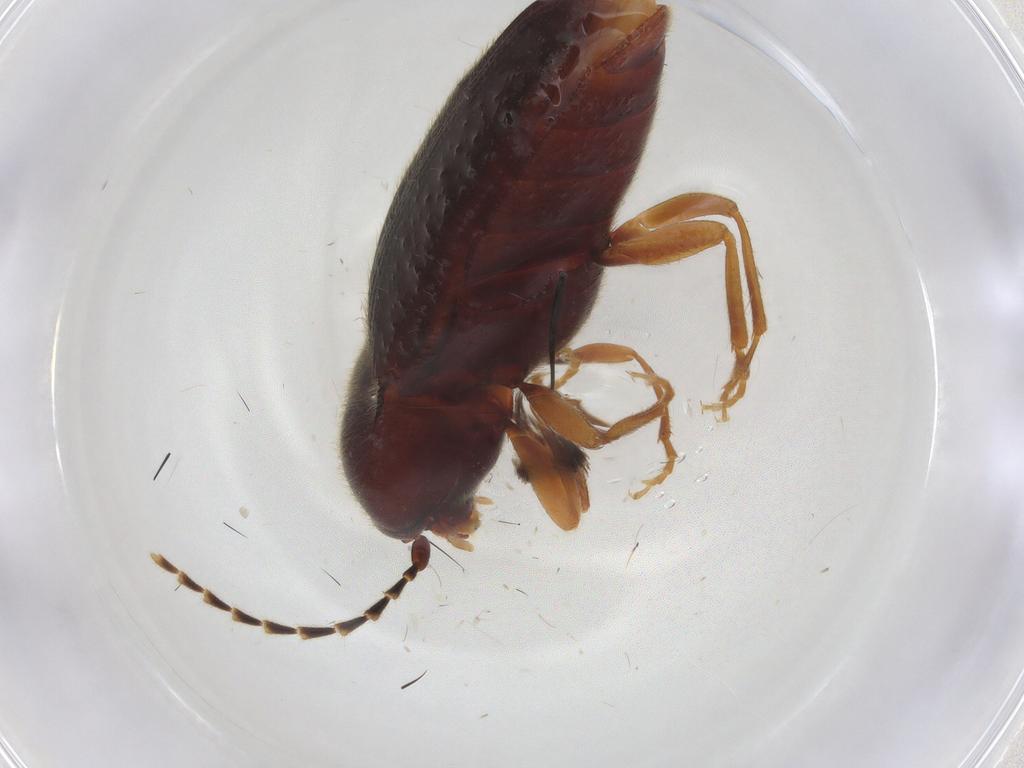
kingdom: Animalia
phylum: Arthropoda
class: Insecta
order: Coleoptera
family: Elateridae
